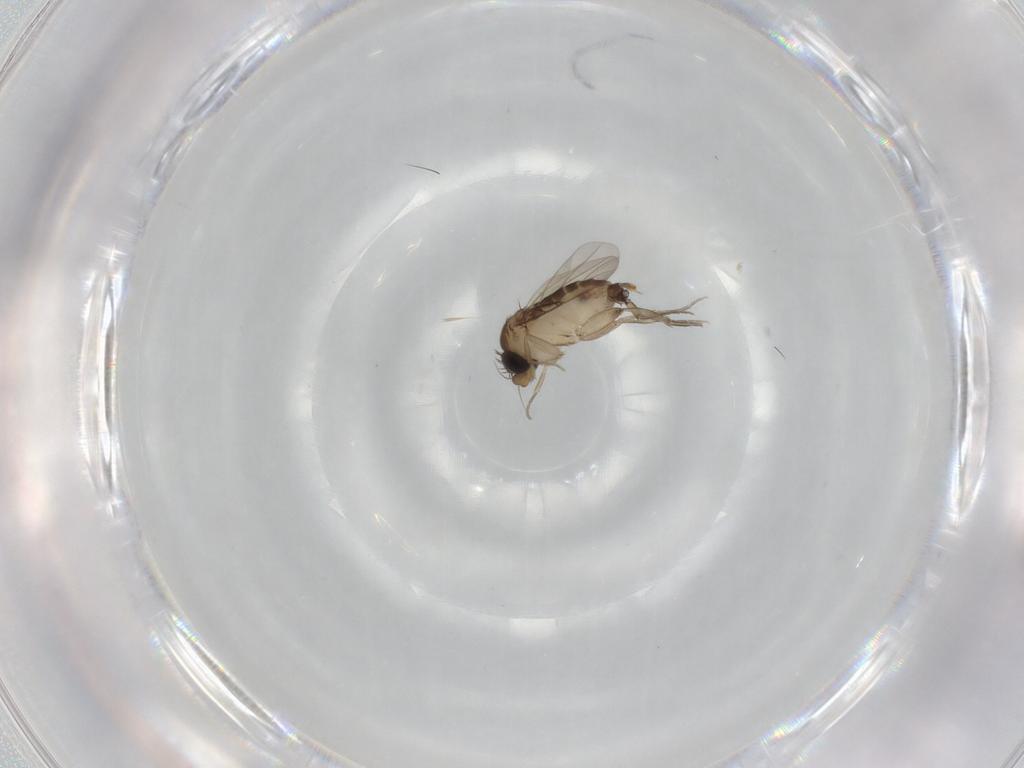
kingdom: Animalia
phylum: Arthropoda
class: Insecta
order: Diptera
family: Phoridae
